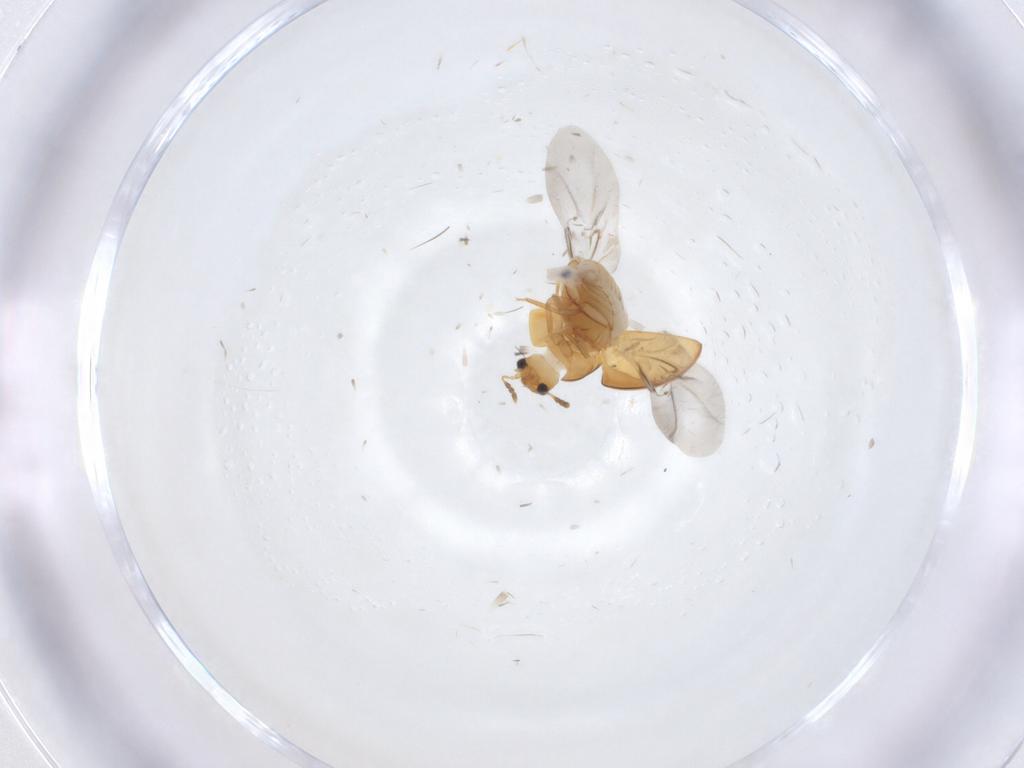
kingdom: Animalia
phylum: Arthropoda
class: Insecta
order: Coleoptera
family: Phalacridae
